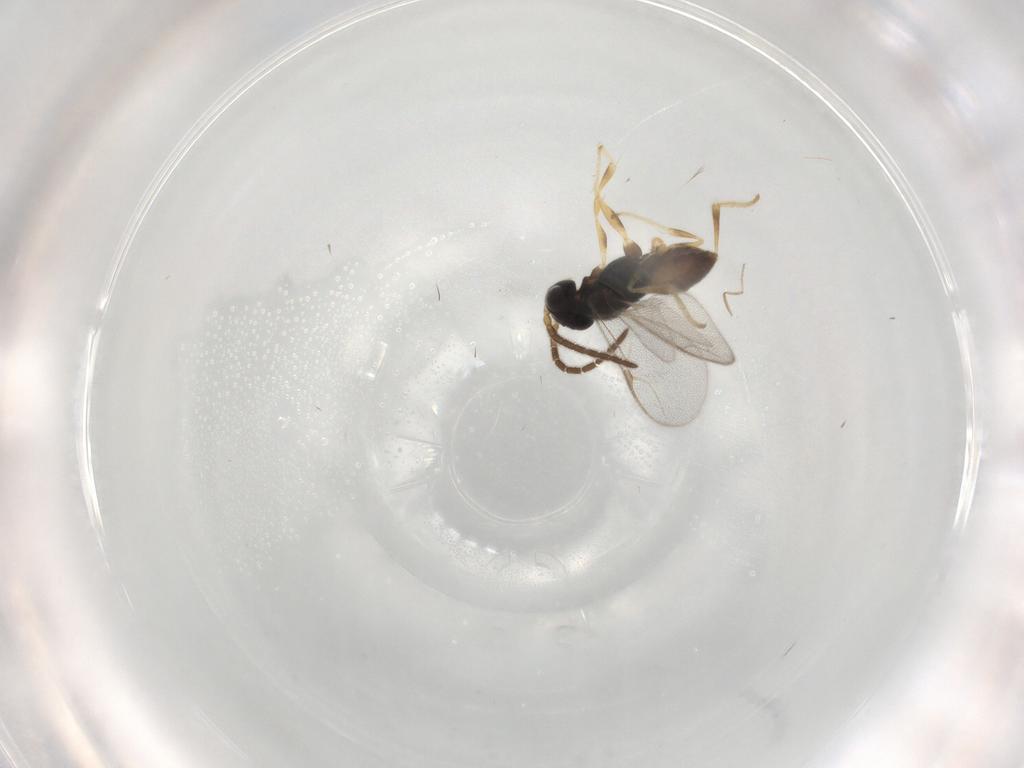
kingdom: Animalia
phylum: Arthropoda
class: Insecta
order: Hymenoptera
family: Dryinidae
